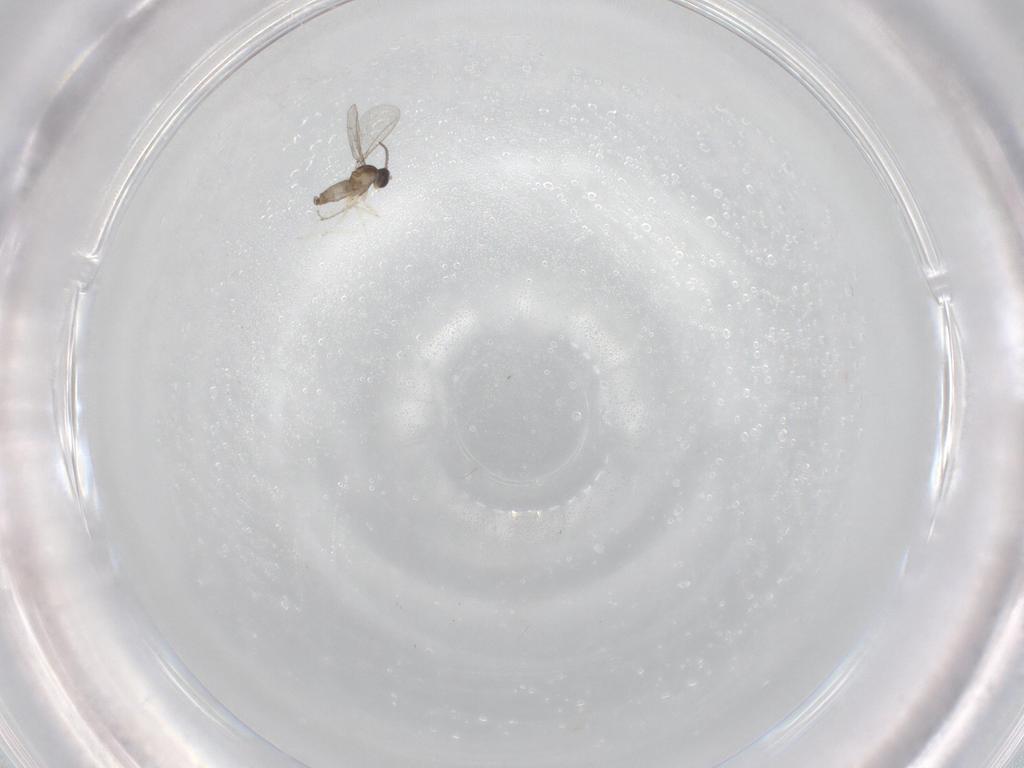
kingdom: Animalia
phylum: Arthropoda
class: Insecta
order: Diptera
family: Cecidomyiidae
